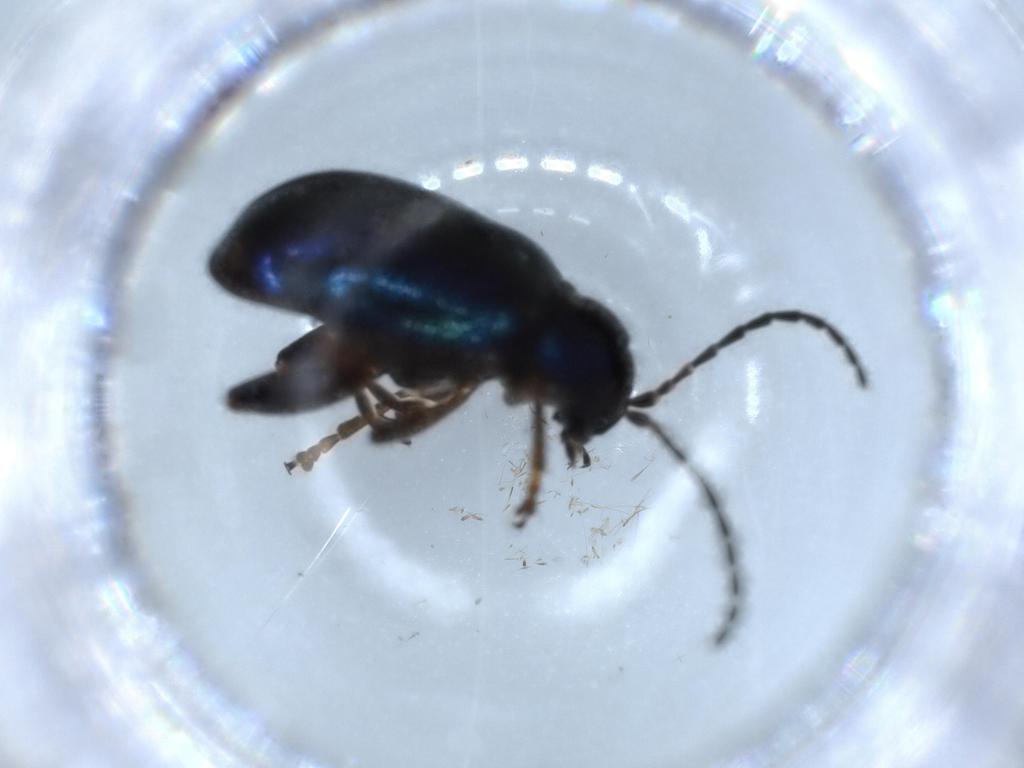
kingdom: Animalia
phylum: Arthropoda
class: Insecta
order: Coleoptera
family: Chrysomelidae
